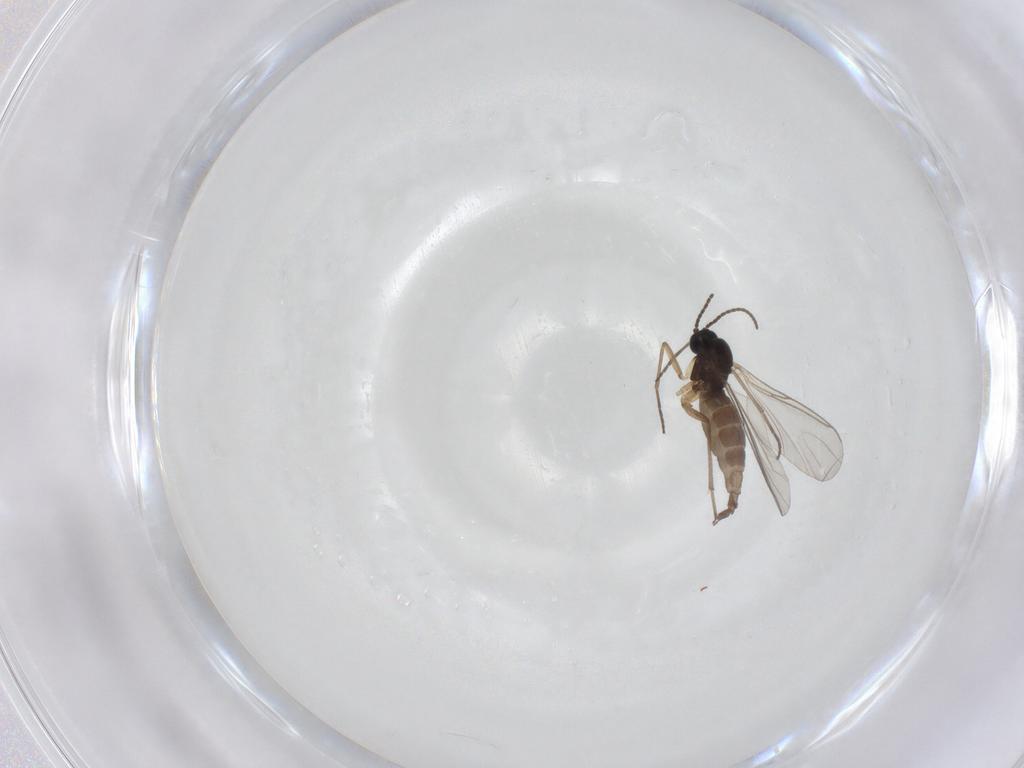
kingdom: Animalia
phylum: Arthropoda
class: Insecta
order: Diptera
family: Sciaridae
